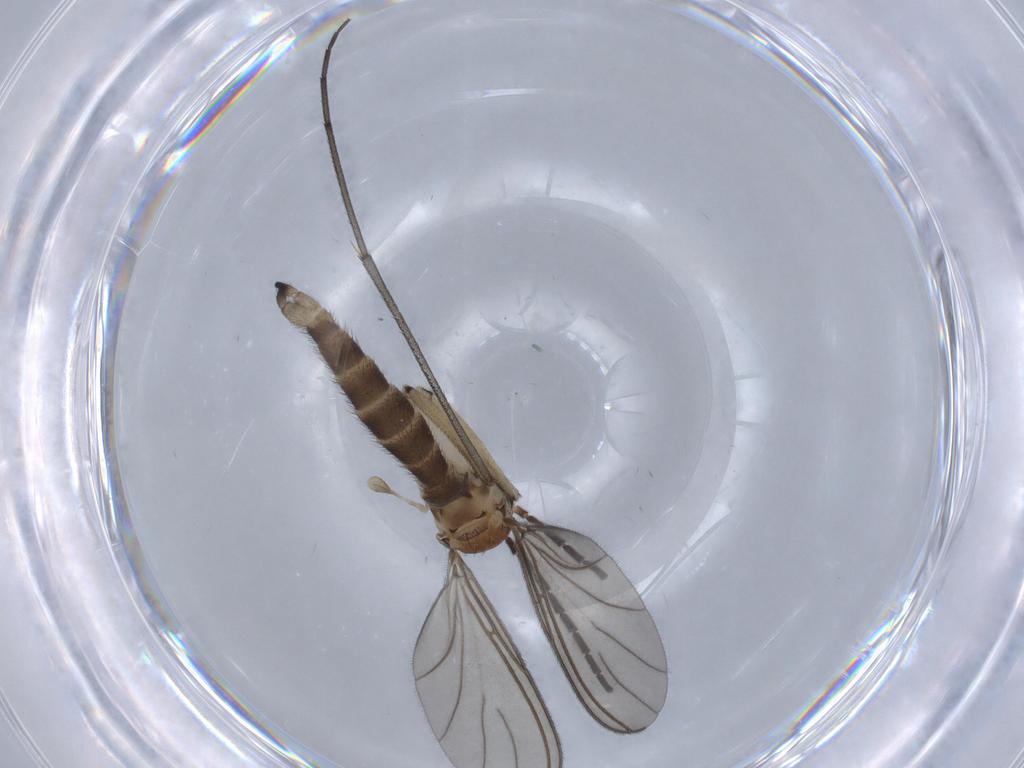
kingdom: Animalia
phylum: Arthropoda
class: Insecta
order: Diptera
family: Sciaridae
